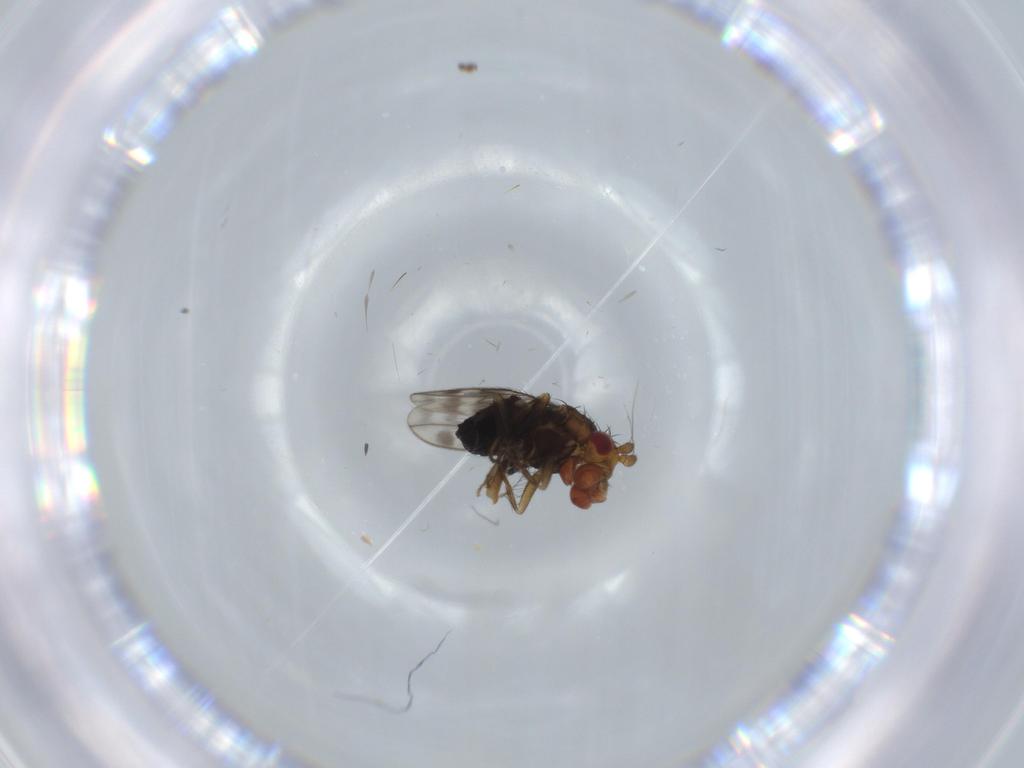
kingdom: Animalia
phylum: Arthropoda
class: Insecta
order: Diptera
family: Sphaeroceridae
